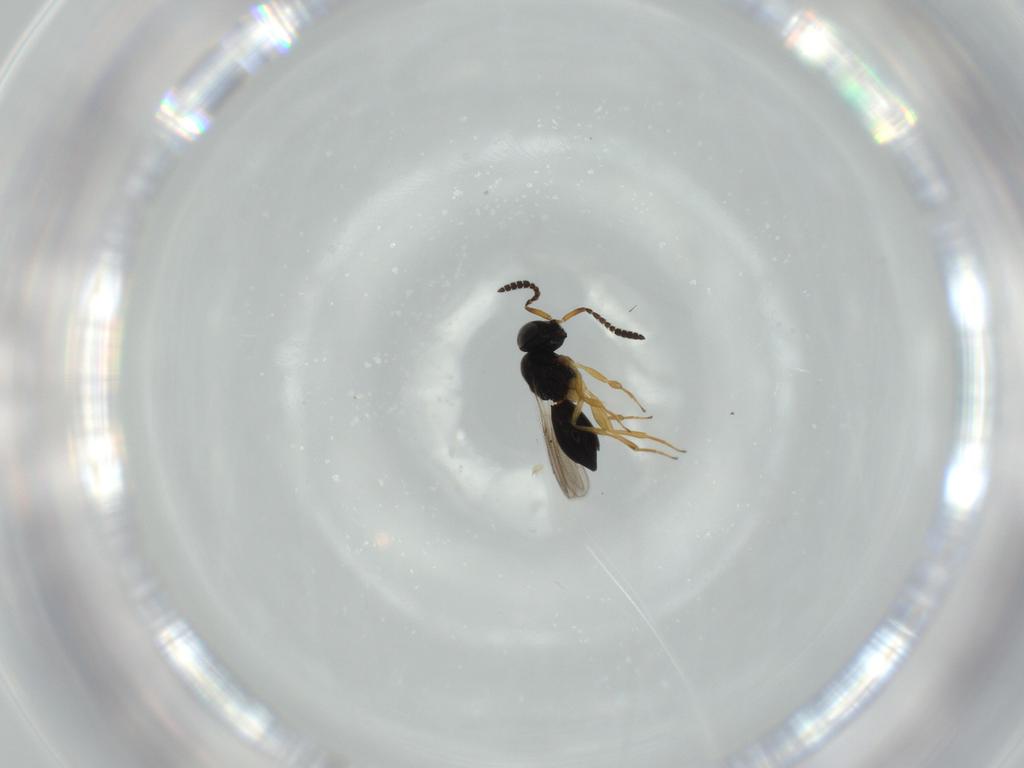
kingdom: Animalia
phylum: Arthropoda
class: Insecta
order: Hymenoptera
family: Scelionidae
